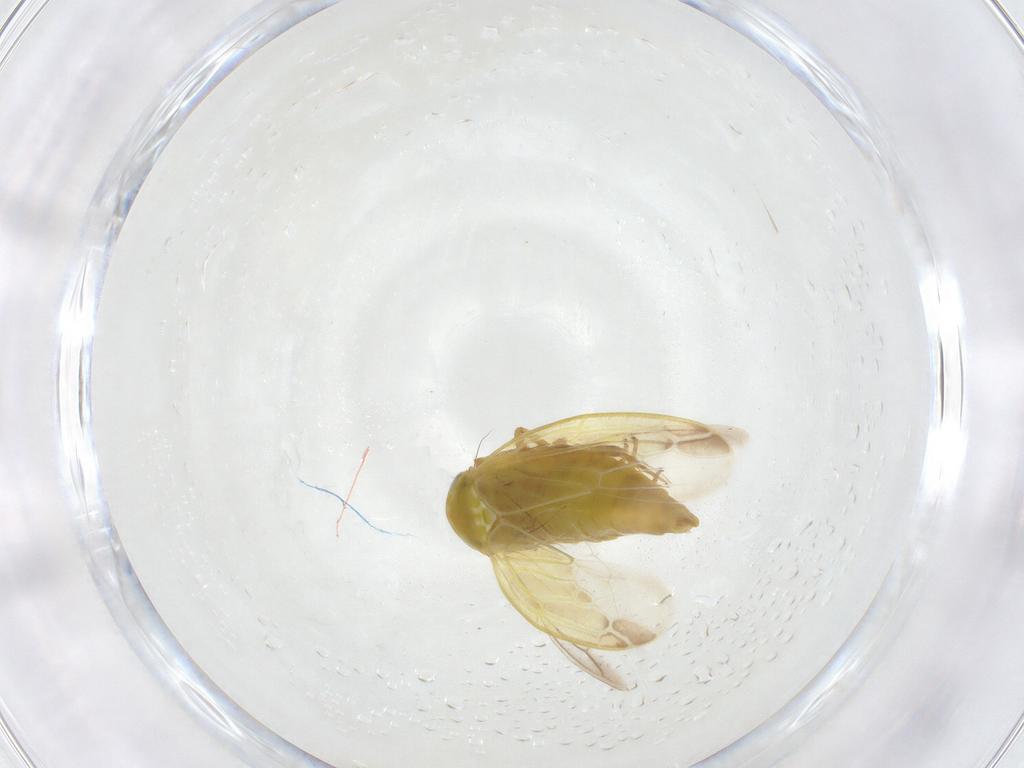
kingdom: Animalia
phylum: Arthropoda
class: Insecta
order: Hemiptera
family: Cicadellidae
